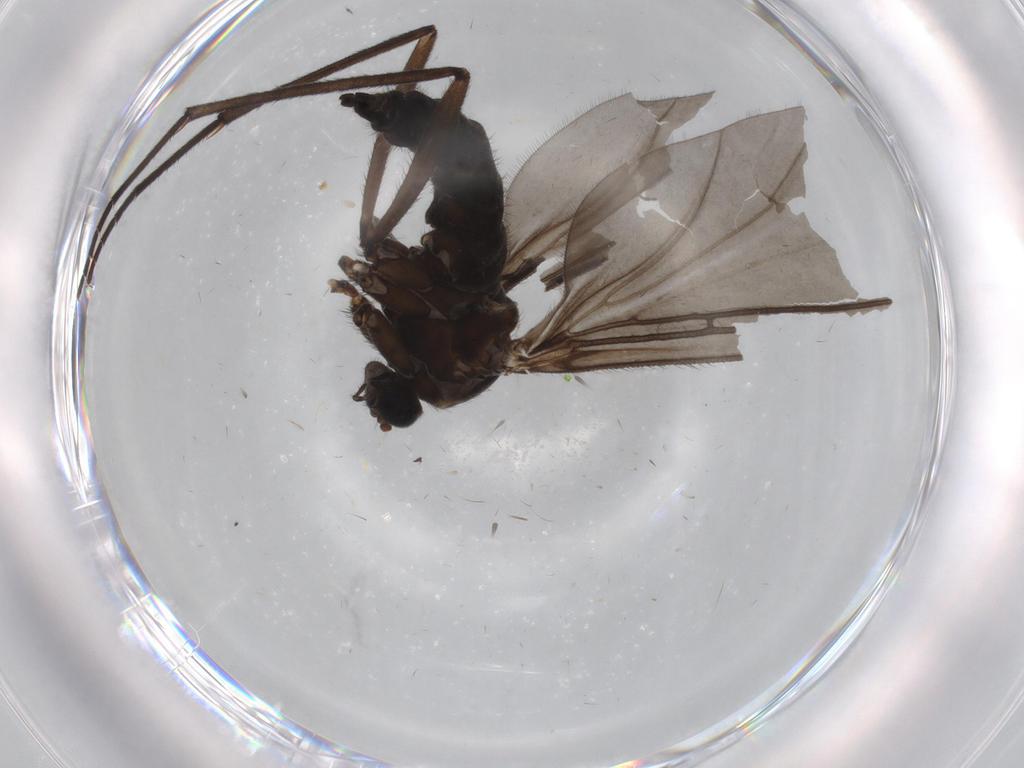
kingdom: Animalia
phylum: Arthropoda
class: Insecta
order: Diptera
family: Sciaridae
